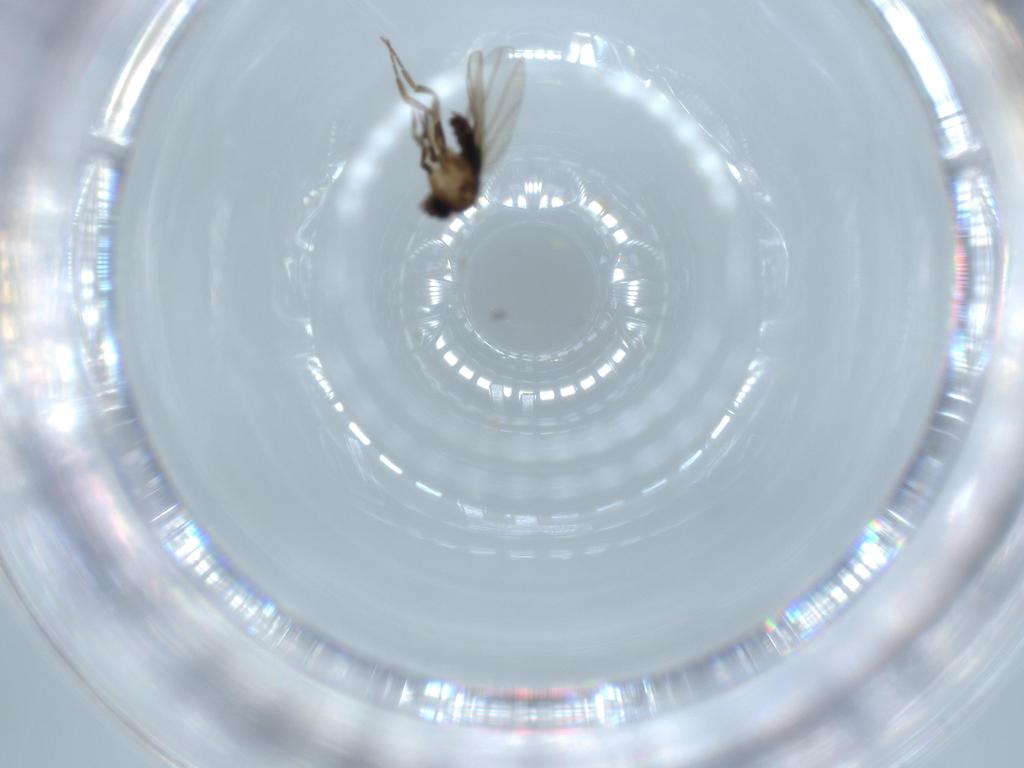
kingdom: Animalia
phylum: Arthropoda
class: Insecta
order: Diptera
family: Phoridae
